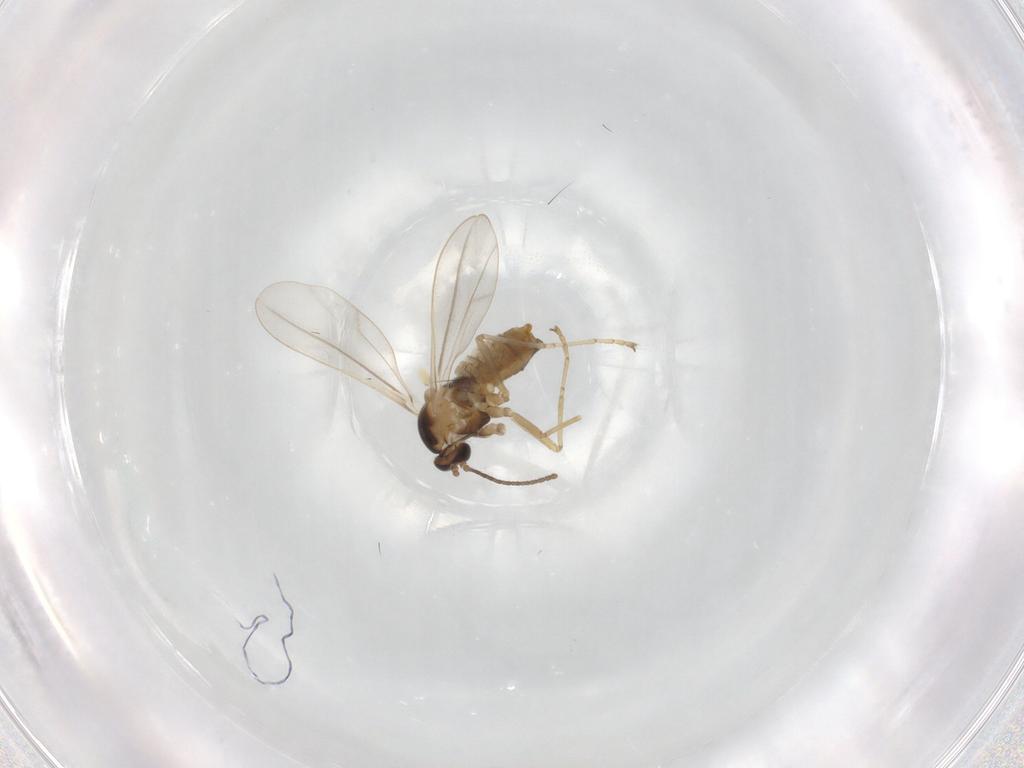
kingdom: Animalia
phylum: Arthropoda
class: Insecta
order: Diptera
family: Cecidomyiidae
